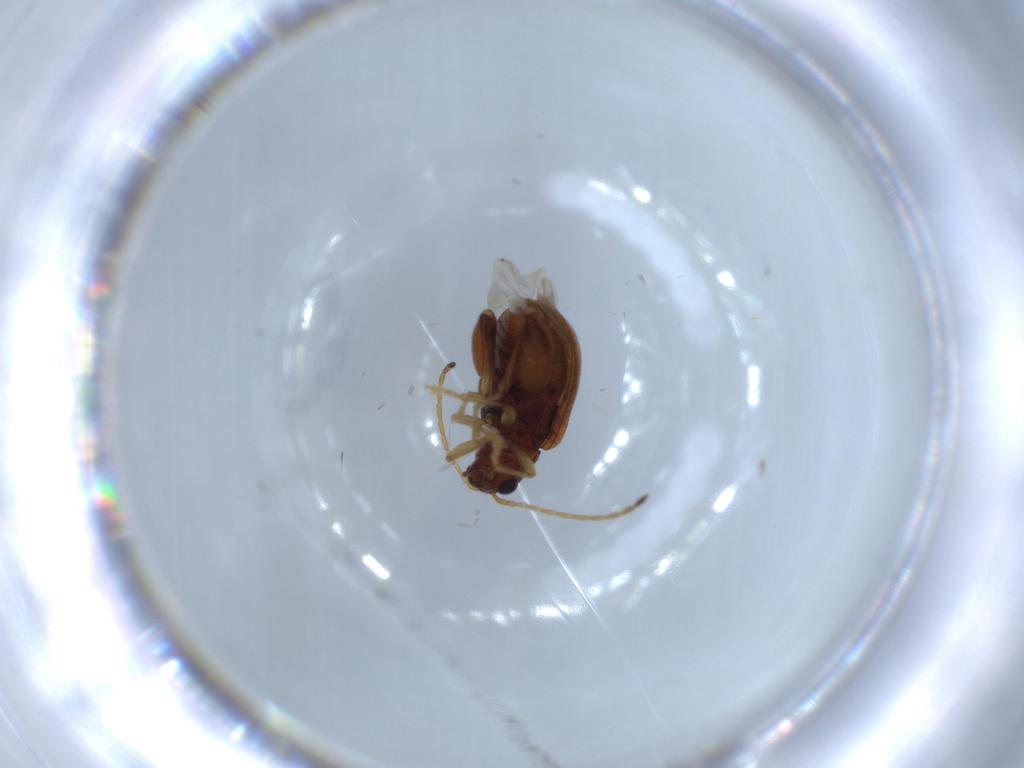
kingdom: Animalia
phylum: Arthropoda
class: Insecta
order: Coleoptera
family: Chrysomelidae
